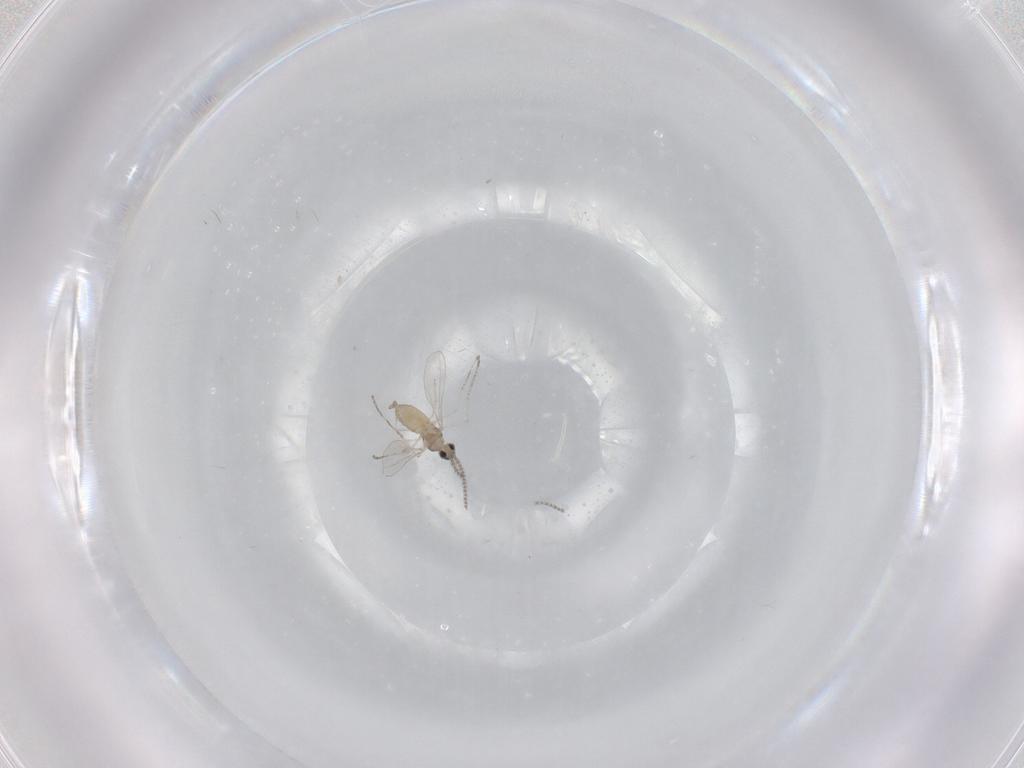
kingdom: Animalia
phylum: Arthropoda
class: Insecta
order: Diptera
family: Cecidomyiidae
